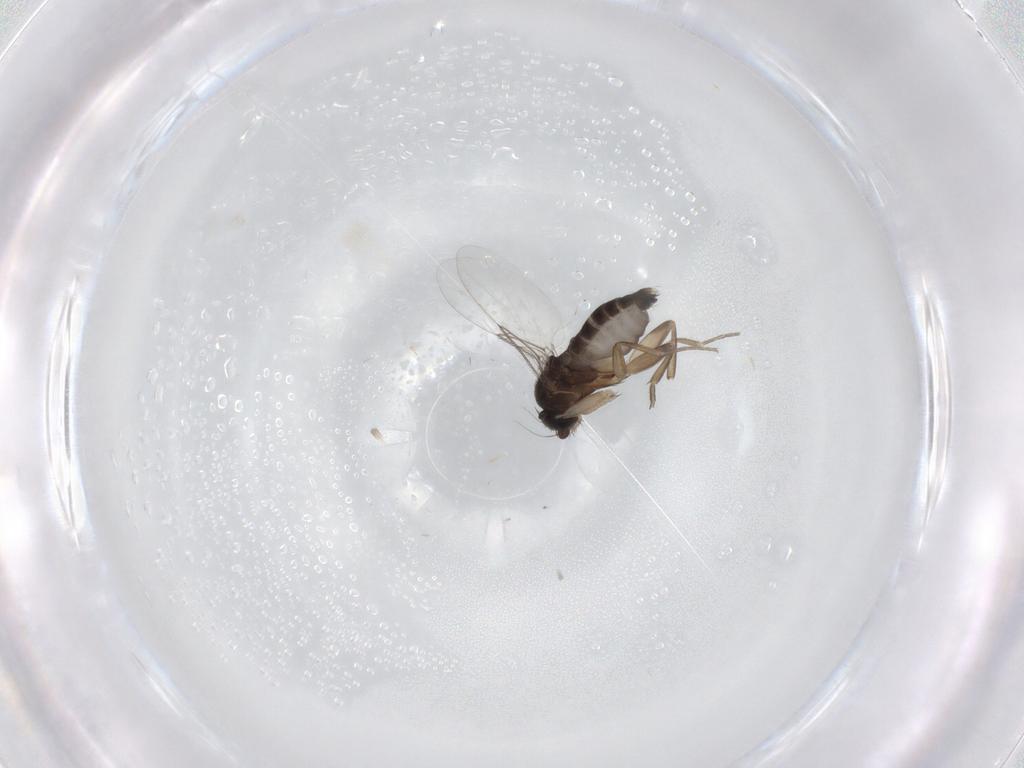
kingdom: Animalia
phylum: Arthropoda
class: Insecta
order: Diptera
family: Phoridae
